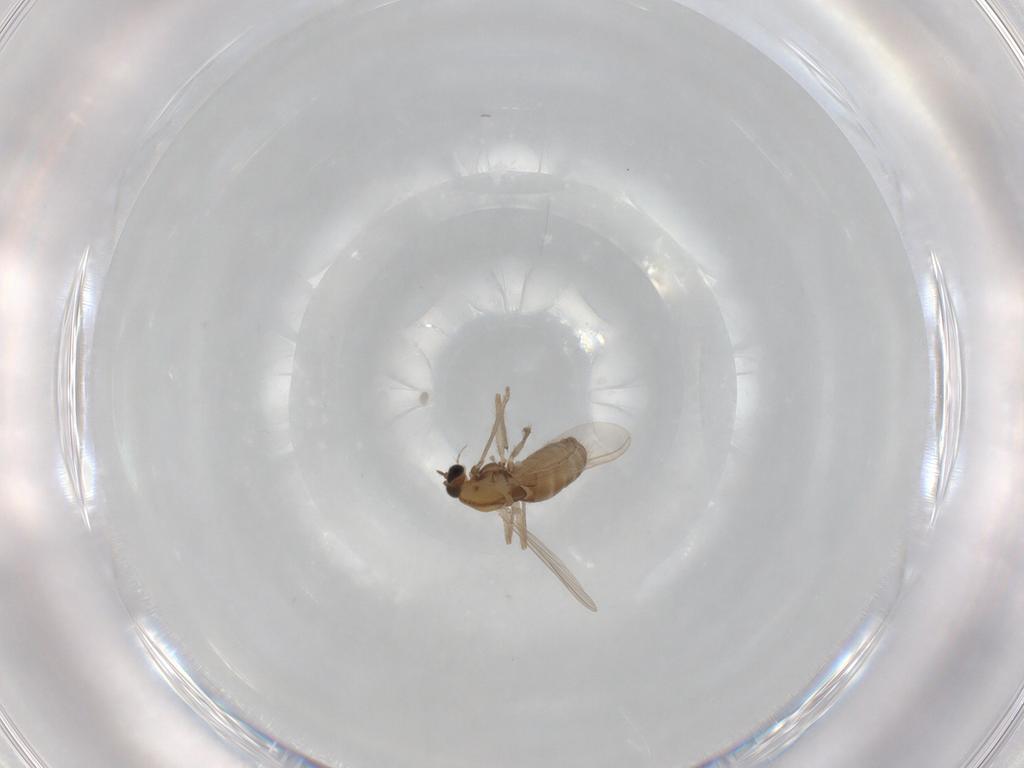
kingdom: Animalia
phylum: Arthropoda
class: Insecta
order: Diptera
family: Chironomidae
